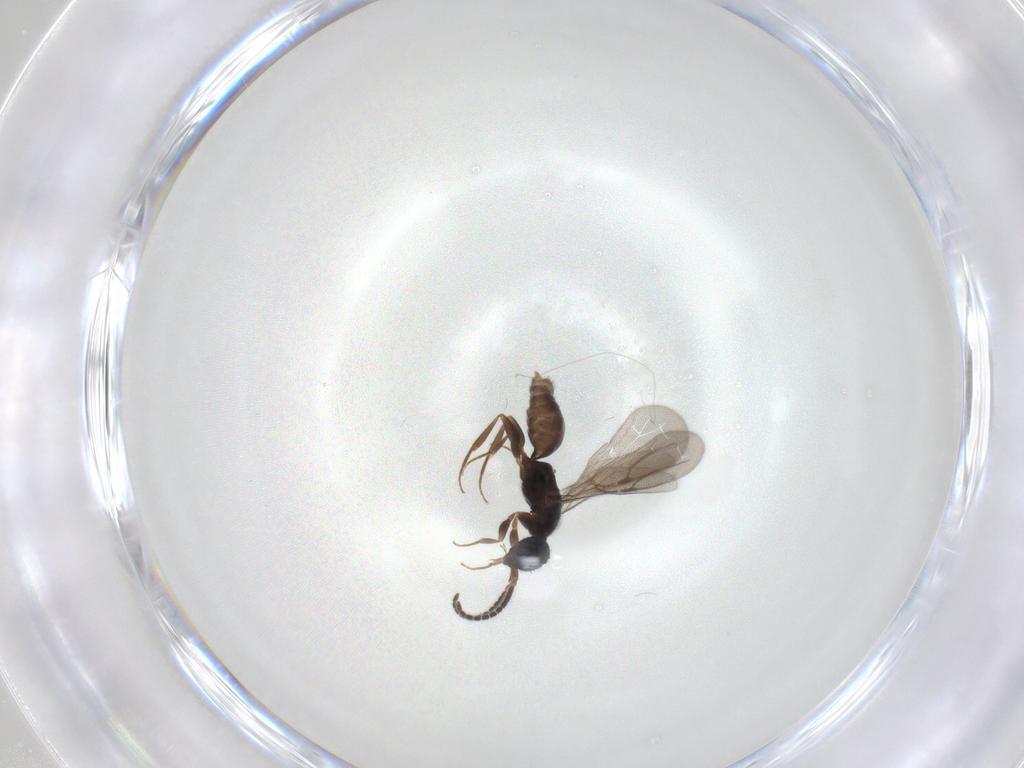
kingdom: Animalia
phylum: Arthropoda
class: Insecta
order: Hymenoptera
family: Bethylidae
